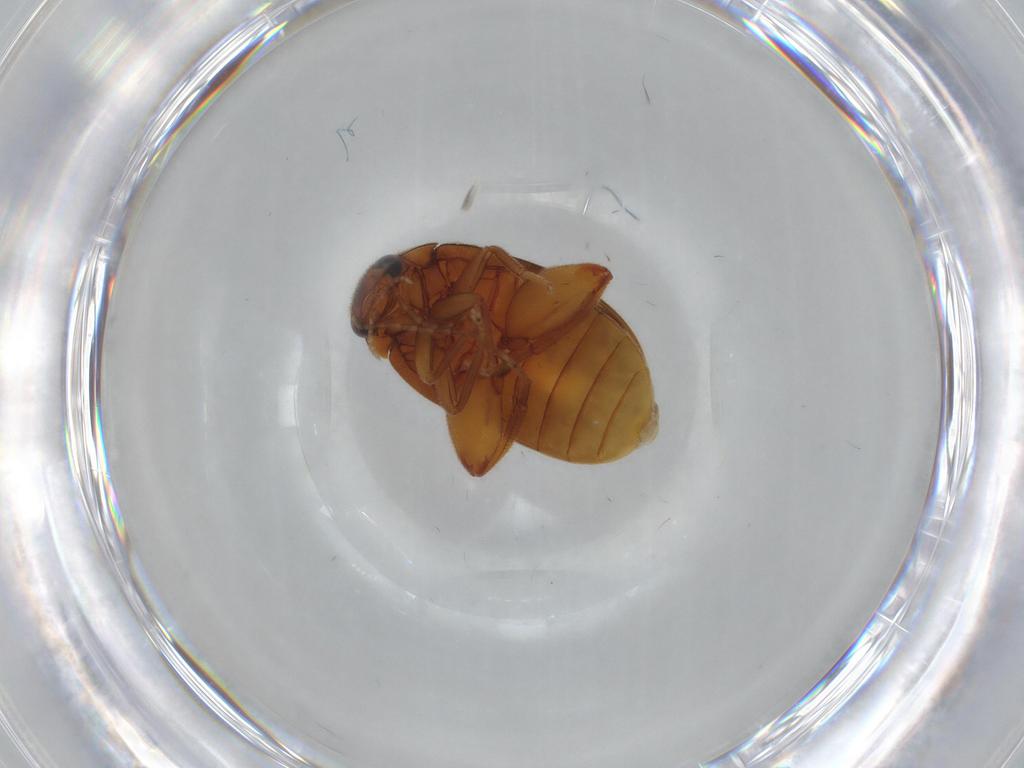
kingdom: Animalia
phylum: Arthropoda
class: Insecta
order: Coleoptera
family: Scirtidae
